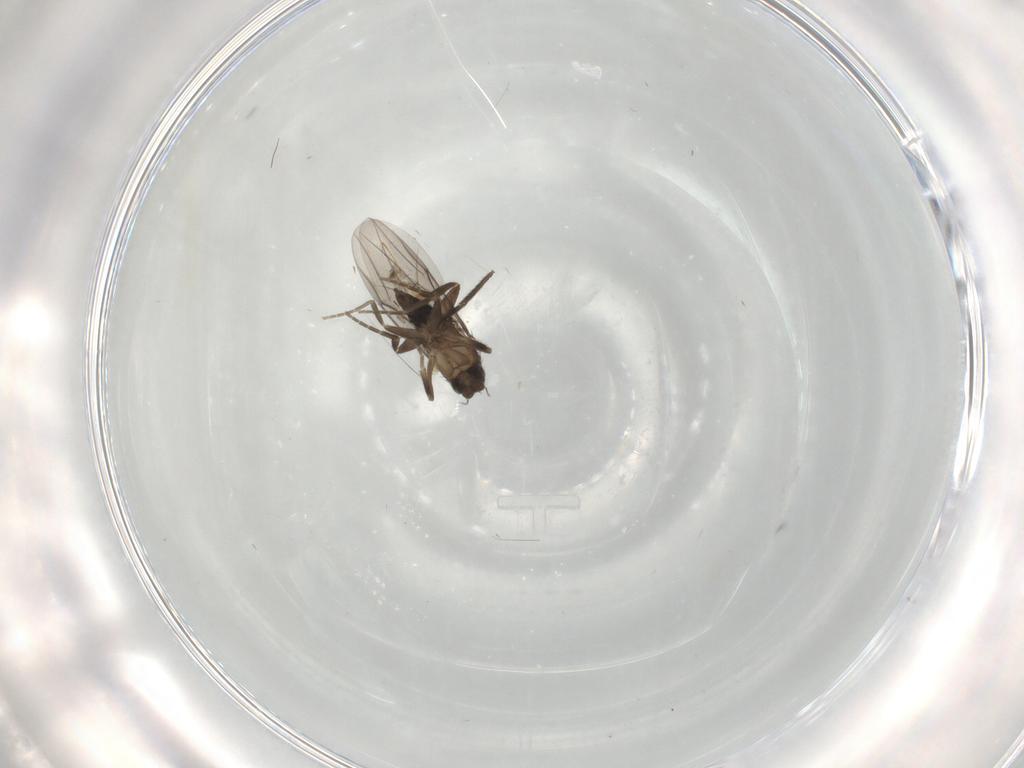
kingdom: Animalia
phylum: Arthropoda
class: Insecta
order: Diptera
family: Sciaridae
